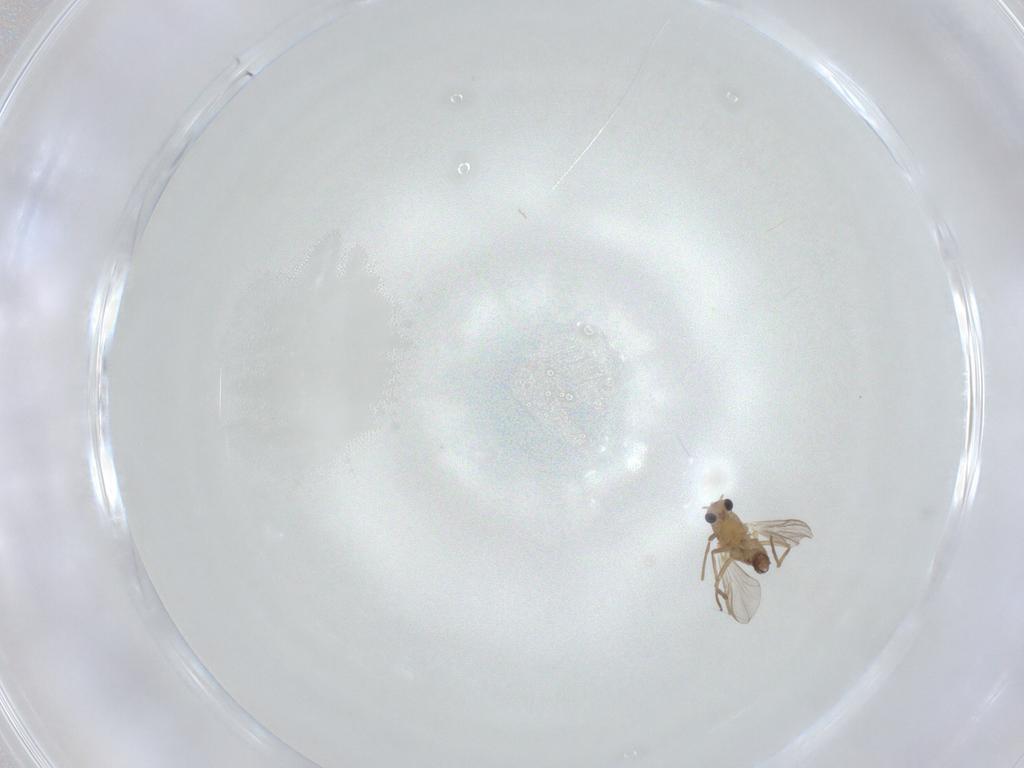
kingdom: Animalia
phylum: Arthropoda
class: Insecta
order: Diptera
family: Chironomidae
